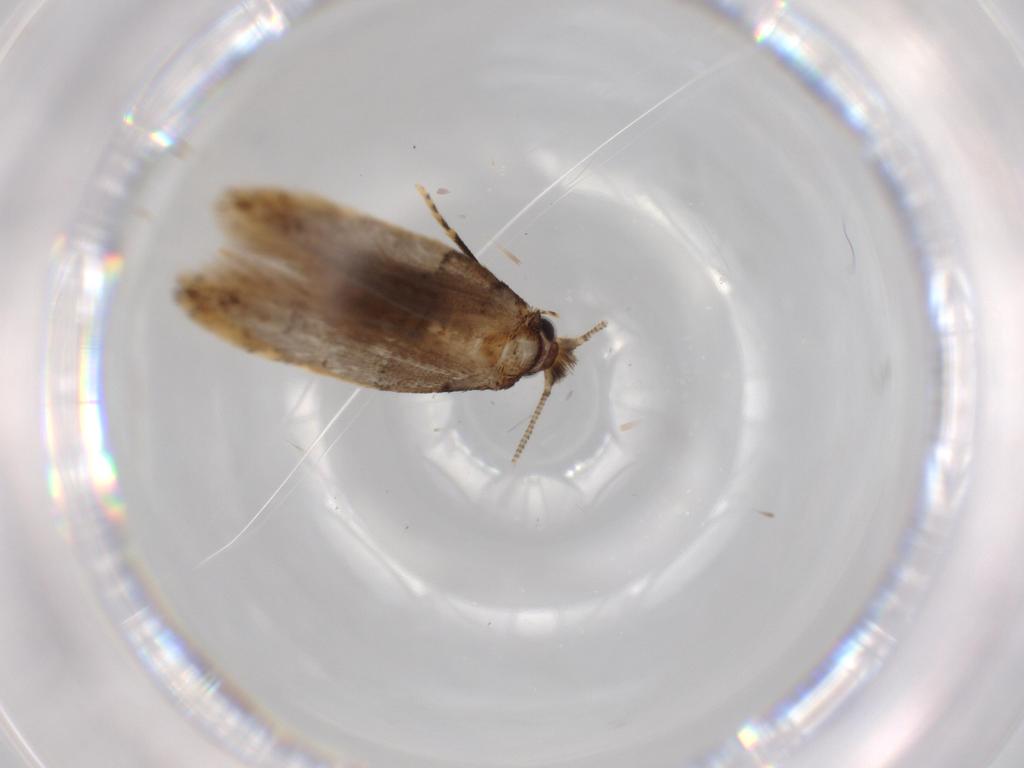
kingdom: Animalia
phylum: Arthropoda
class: Insecta
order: Lepidoptera
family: Tineidae
